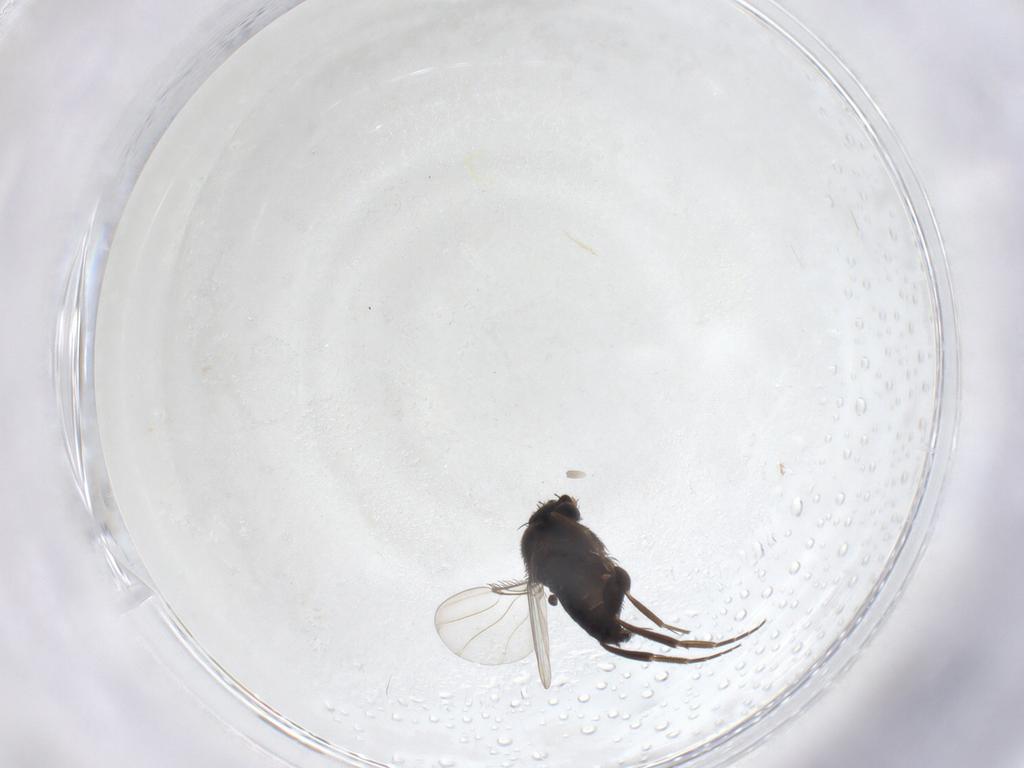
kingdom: Animalia
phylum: Arthropoda
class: Insecta
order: Diptera
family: Phoridae
